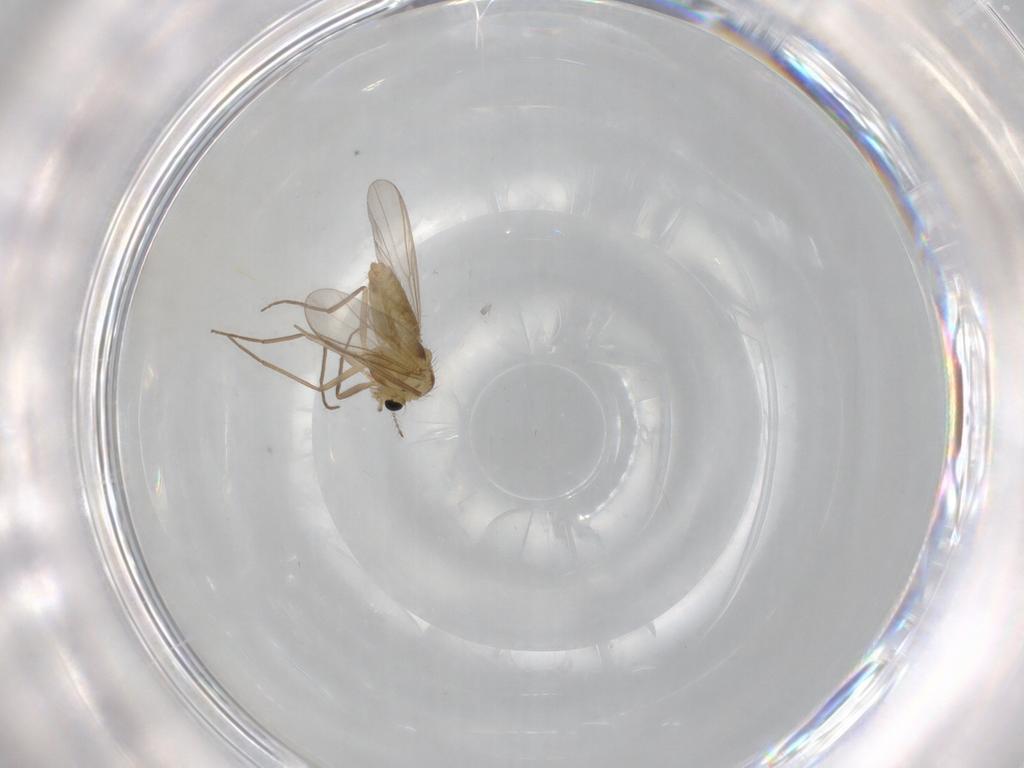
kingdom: Animalia
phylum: Arthropoda
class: Insecta
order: Diptera
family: Chironomidae
